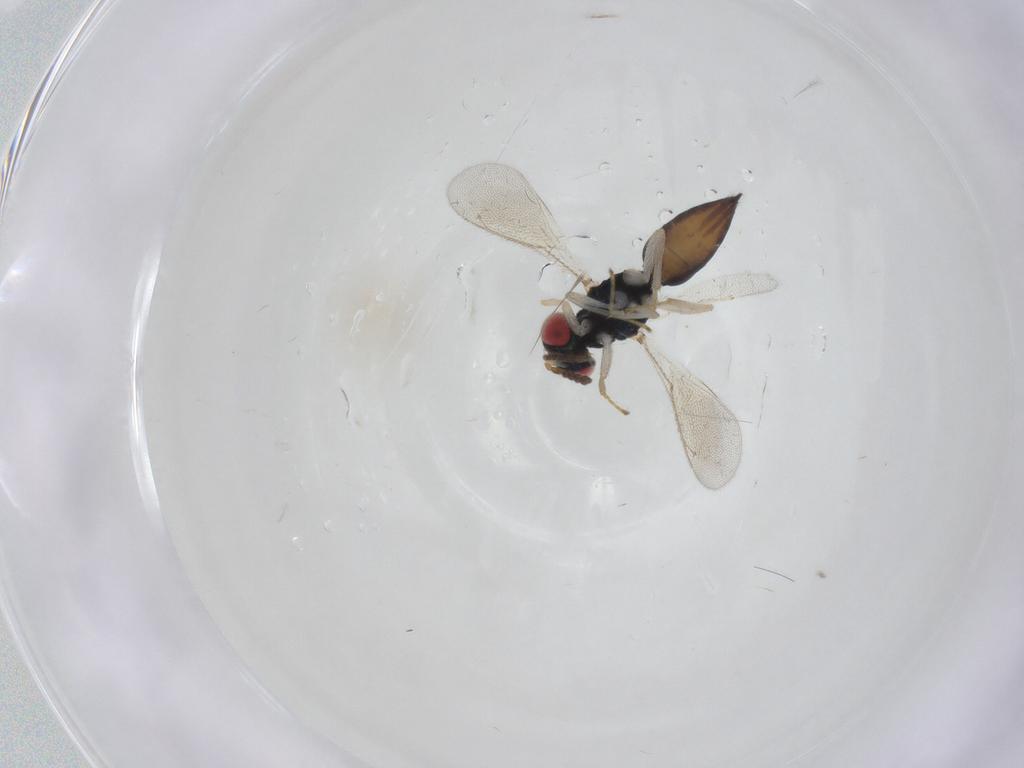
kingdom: Animalia
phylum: Arthropoda
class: Insecta
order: Hymenoptera
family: Eulophidae
